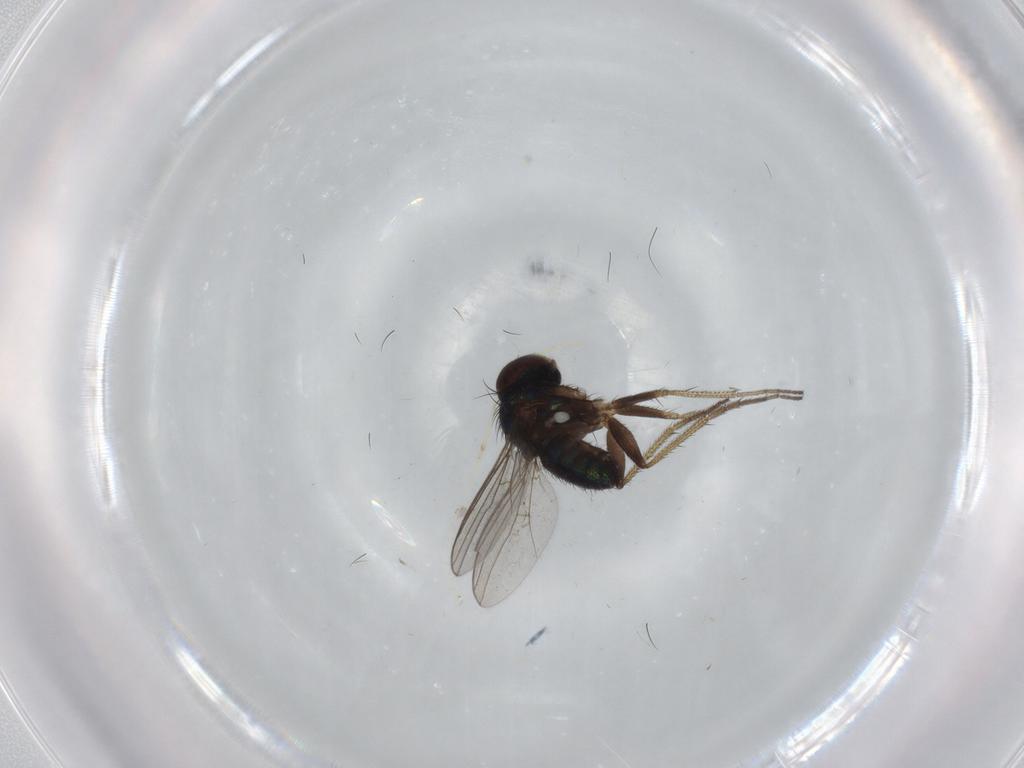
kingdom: Animalia
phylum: Arthropoda
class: Insecta
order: Diptera
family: Dolichopodidae
